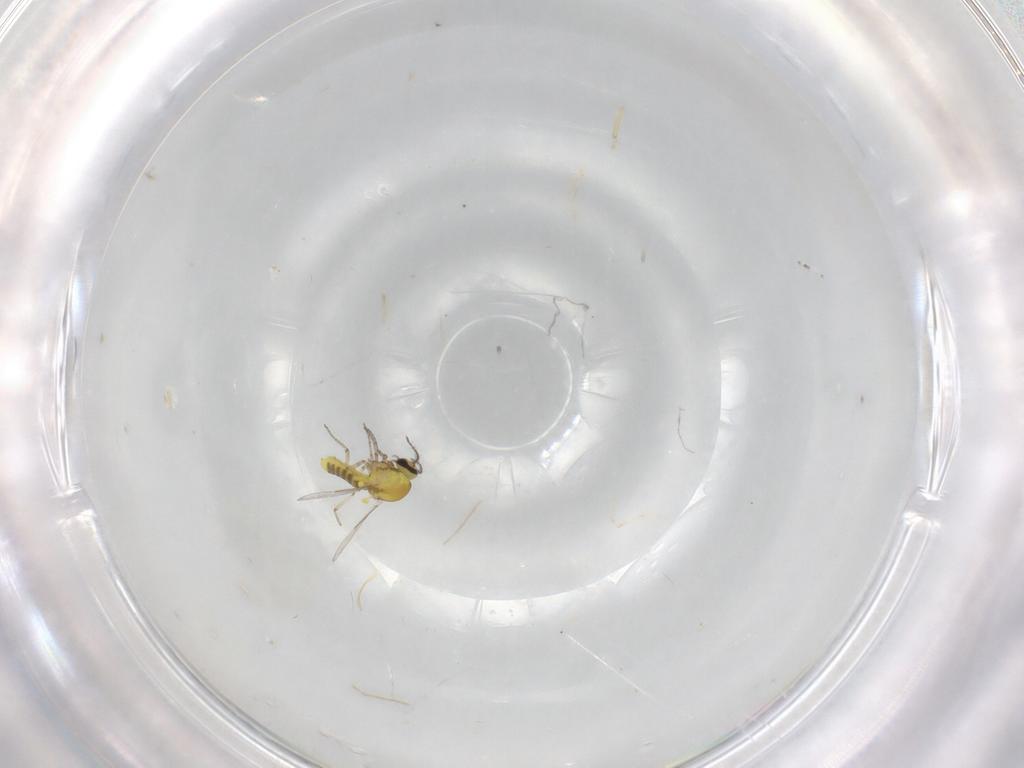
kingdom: Animalia
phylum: Arthropoda
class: Insecta
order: Diptera
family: Ceratopogonidae
